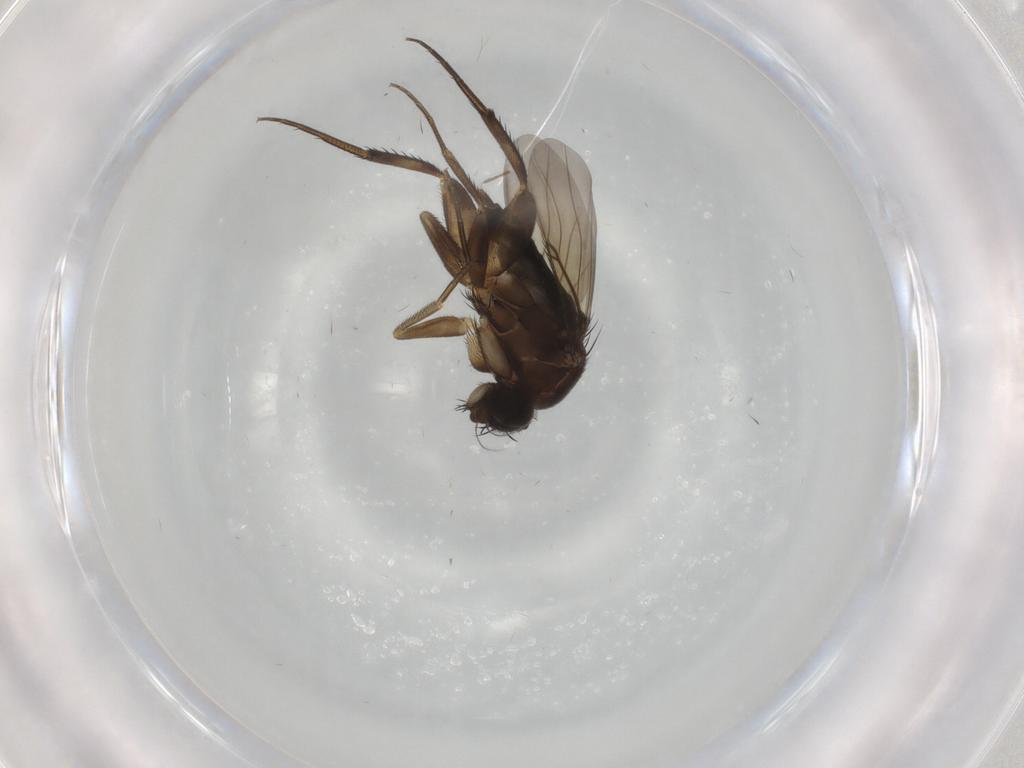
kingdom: Animalia
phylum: Arthropoda
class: Insecta
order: Diptera
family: Phoridae
